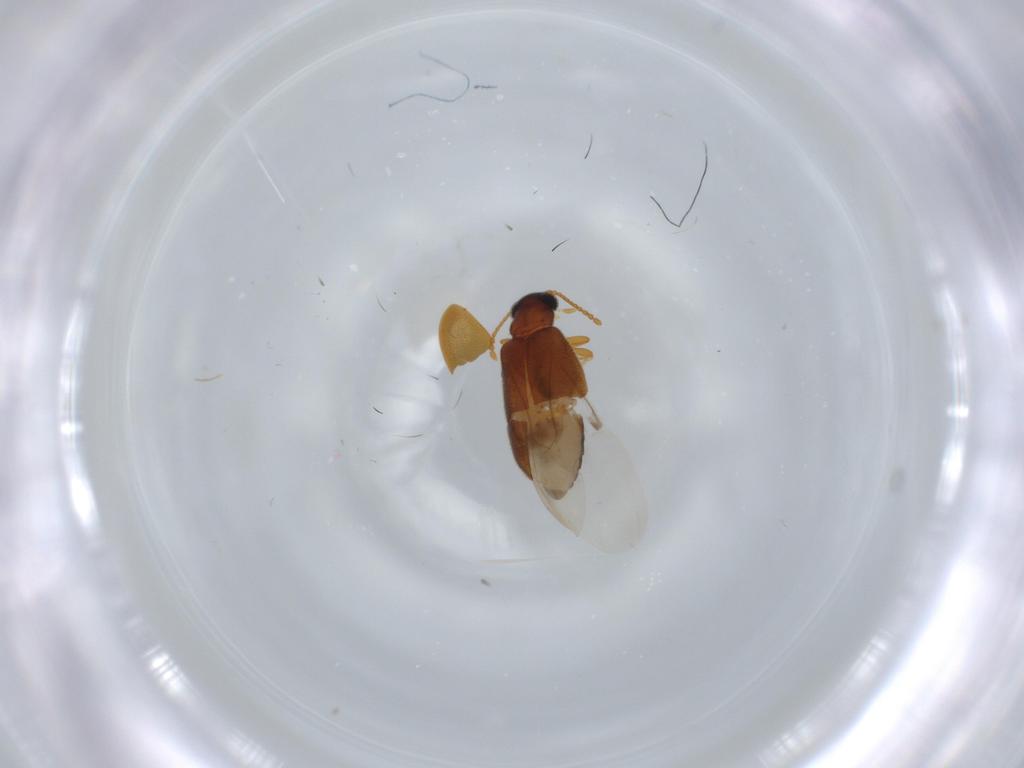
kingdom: Animalia
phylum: Arthropoda
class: Insecta
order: Coleoptera
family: Aderidae
